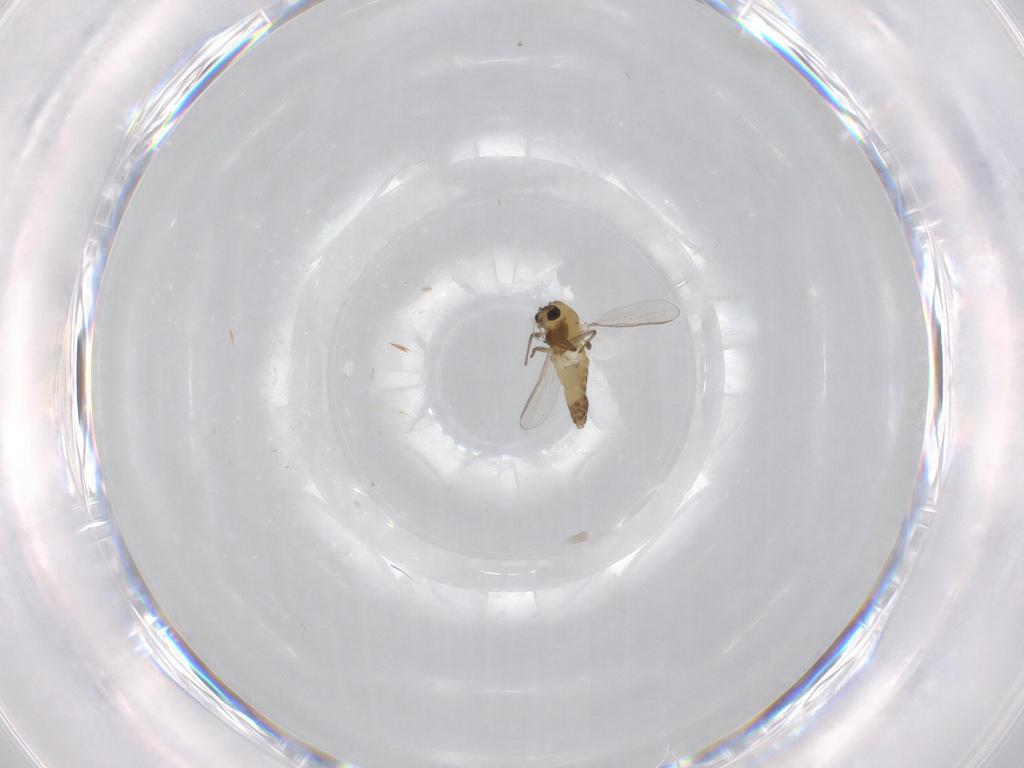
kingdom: Animalia
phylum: Arthropoda
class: Insecta
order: Diptera
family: Chironomidae
